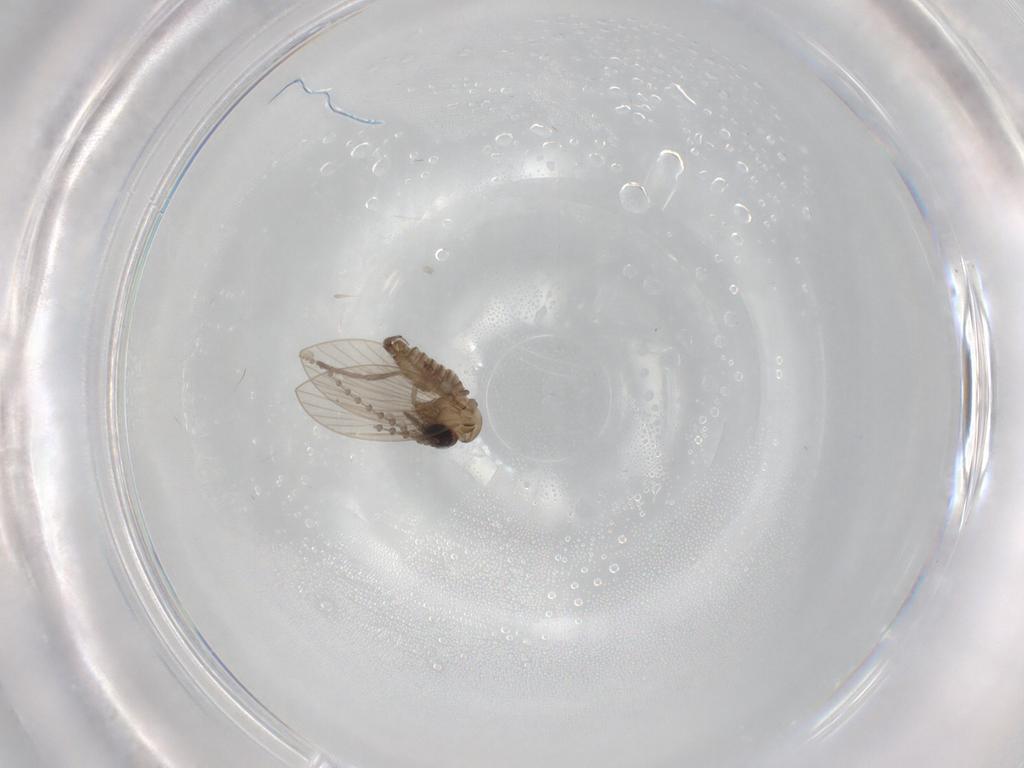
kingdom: Animalia
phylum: Arthropoda
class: Insecta
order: Diptera
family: Psychodidae
